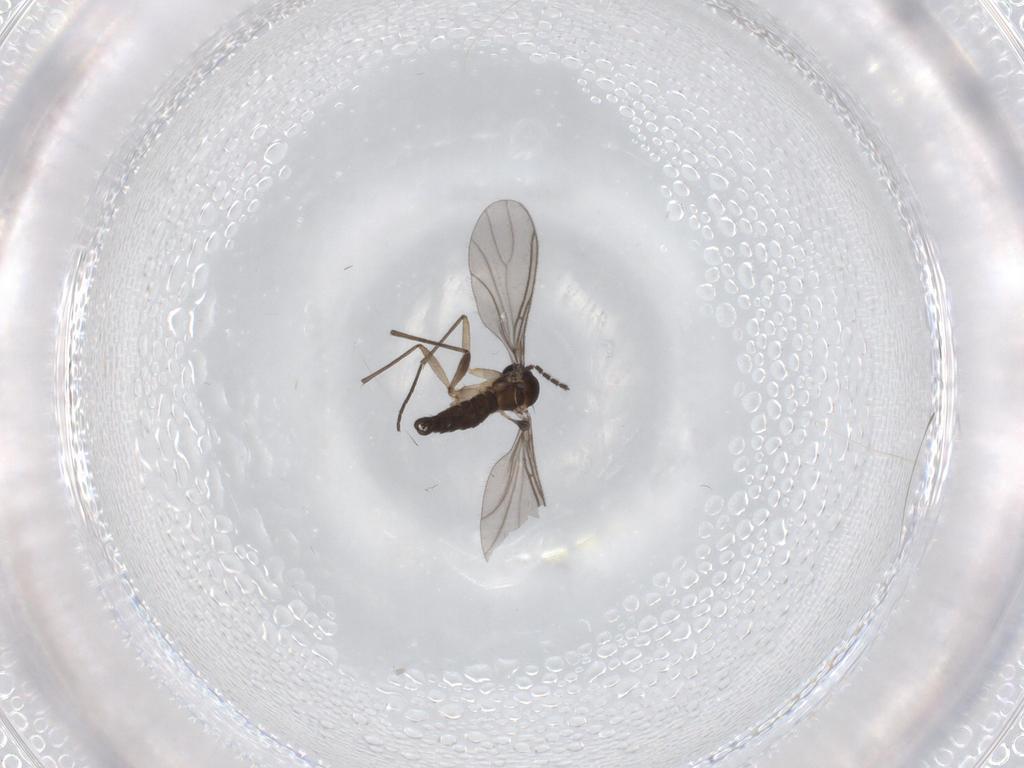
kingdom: Animalia
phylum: Arthropoda
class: Insecta
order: Diptera
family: Sciaridae
